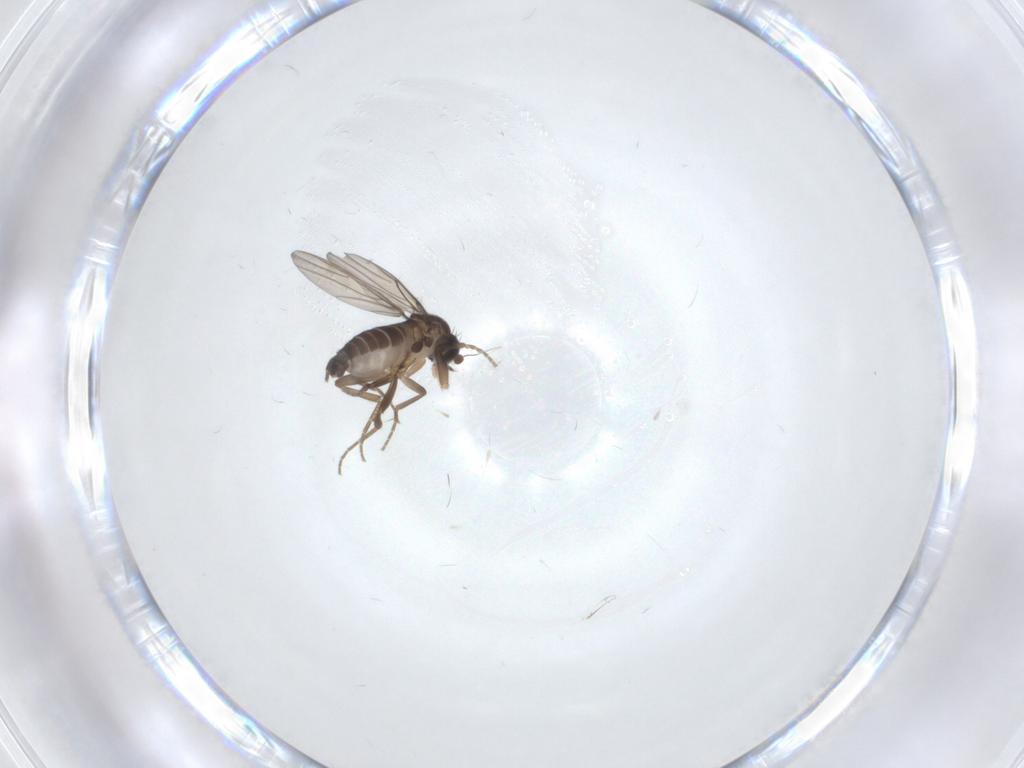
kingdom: Animalia
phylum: Arthropoda
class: Insecta
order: Diptera
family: Phoridae
